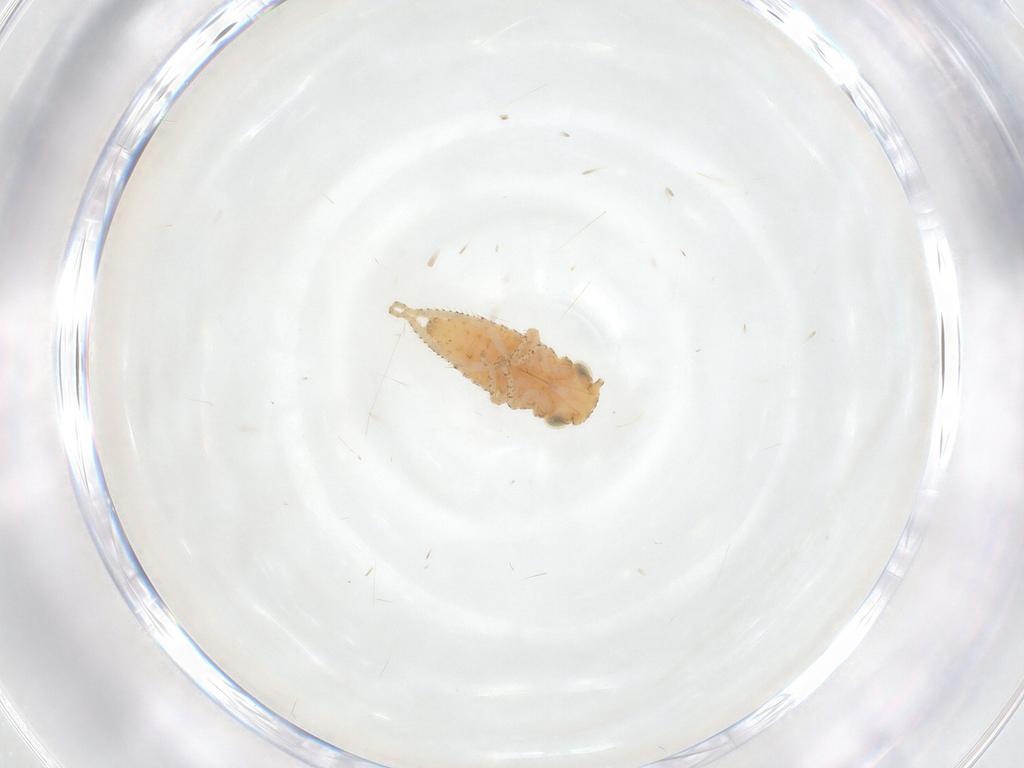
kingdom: Animalia
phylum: Arthropoda
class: Insecta
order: Hemiptera
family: Cicadellidae
